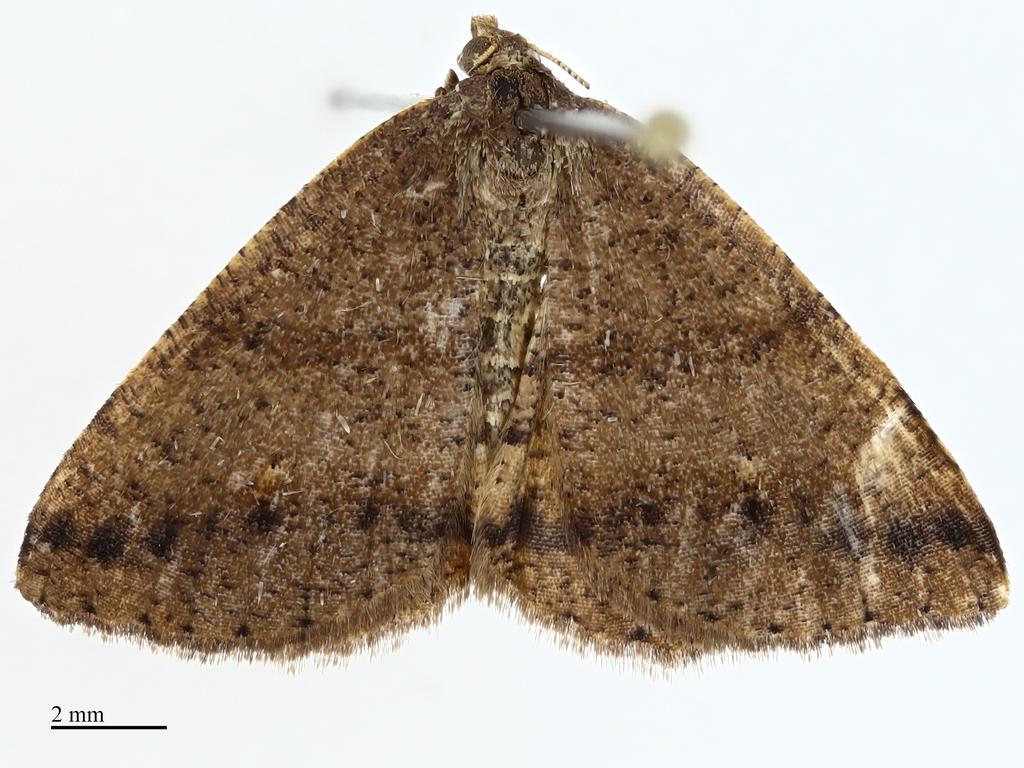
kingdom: Animalia
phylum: Arthropoda
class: Insecta
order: Lepidoptera
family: Geometridae
